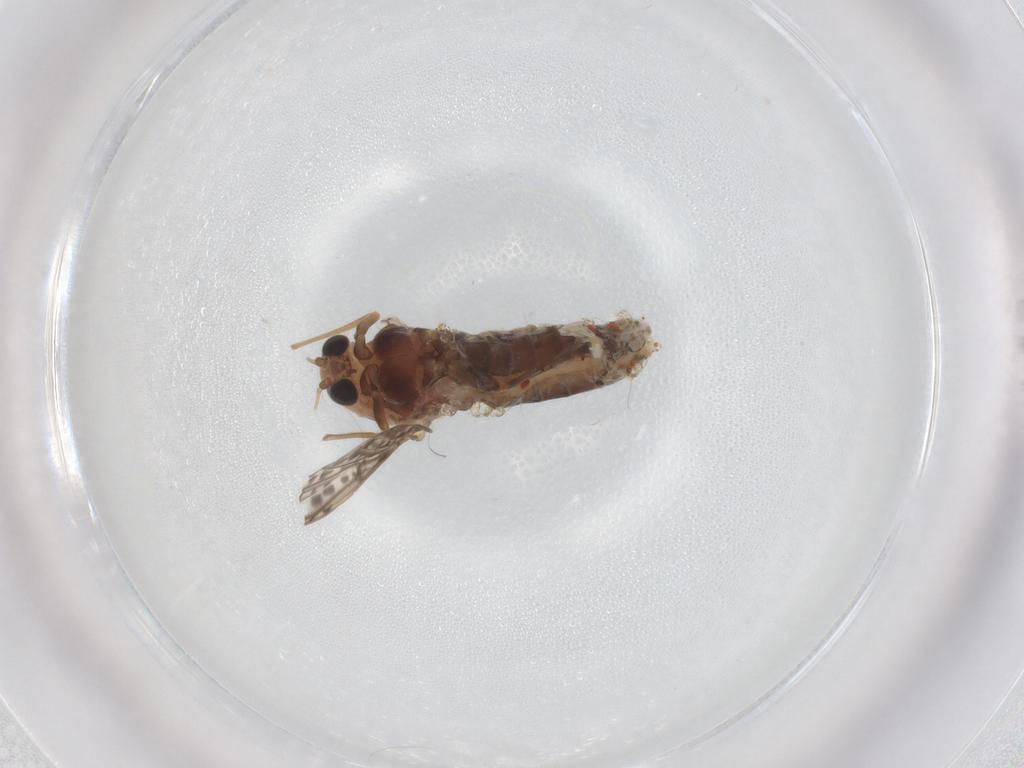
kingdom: Animalia
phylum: Arthropoda
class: Insecta
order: Diptera
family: Chironomidae
